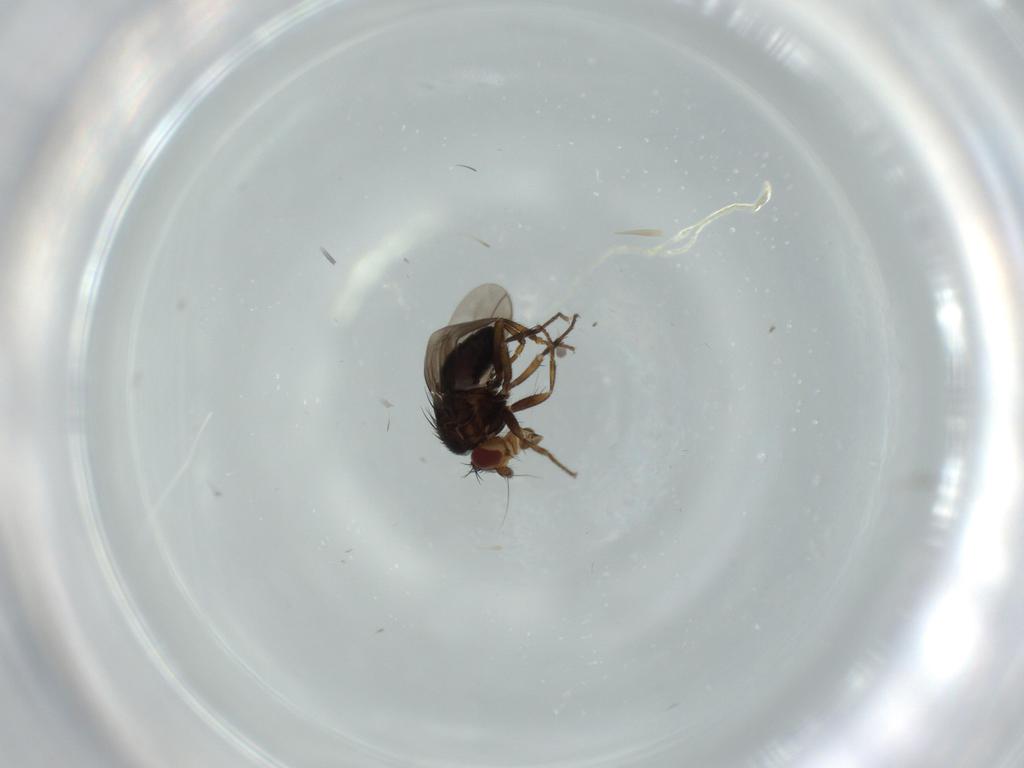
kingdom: Animalia
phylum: Arthropoda
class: Insecta
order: Diptera
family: Sphaeroceridae
